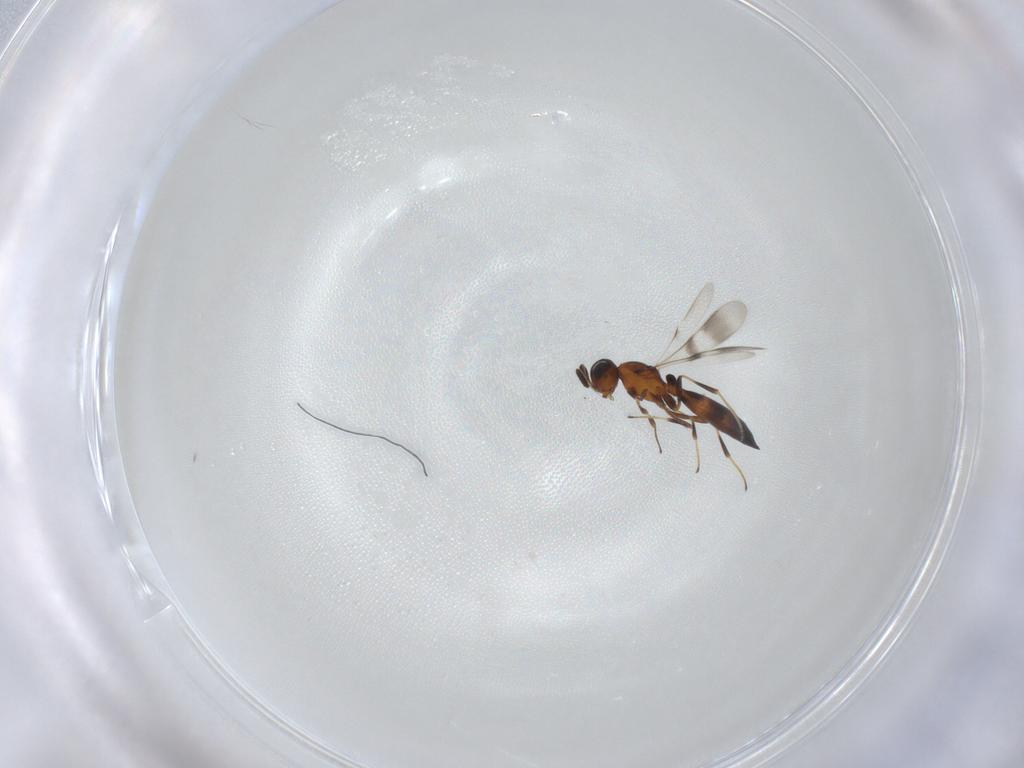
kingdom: Animalia
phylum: Arthropoda
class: Insecta
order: Hymenoptera
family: Scelionidae
